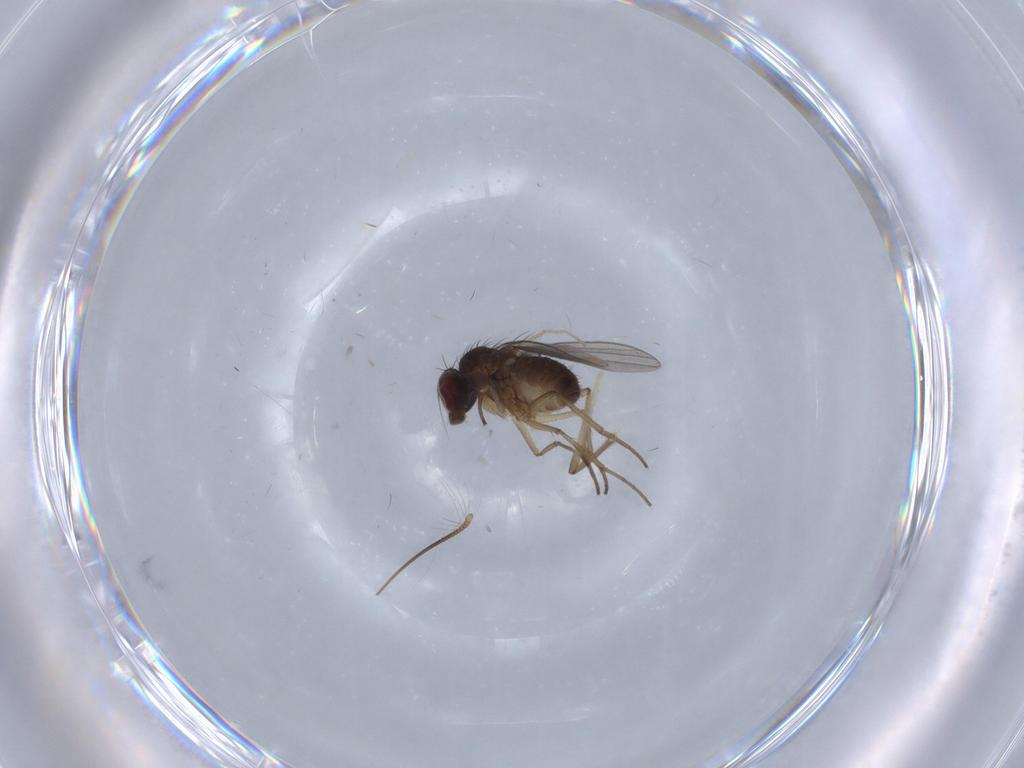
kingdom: Animalia
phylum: Arthropoda
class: Insecta
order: Diptera
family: Dolichopodidae
